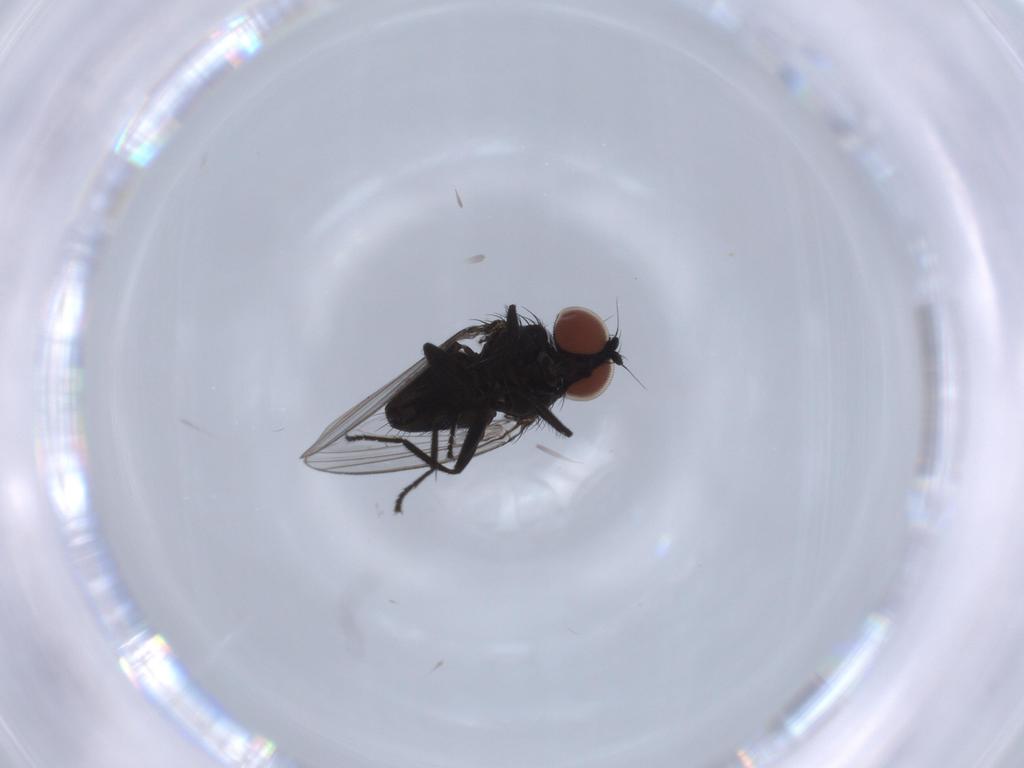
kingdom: Animalia
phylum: Arthropoda
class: Insecta
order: Diptera
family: Milichiidae
